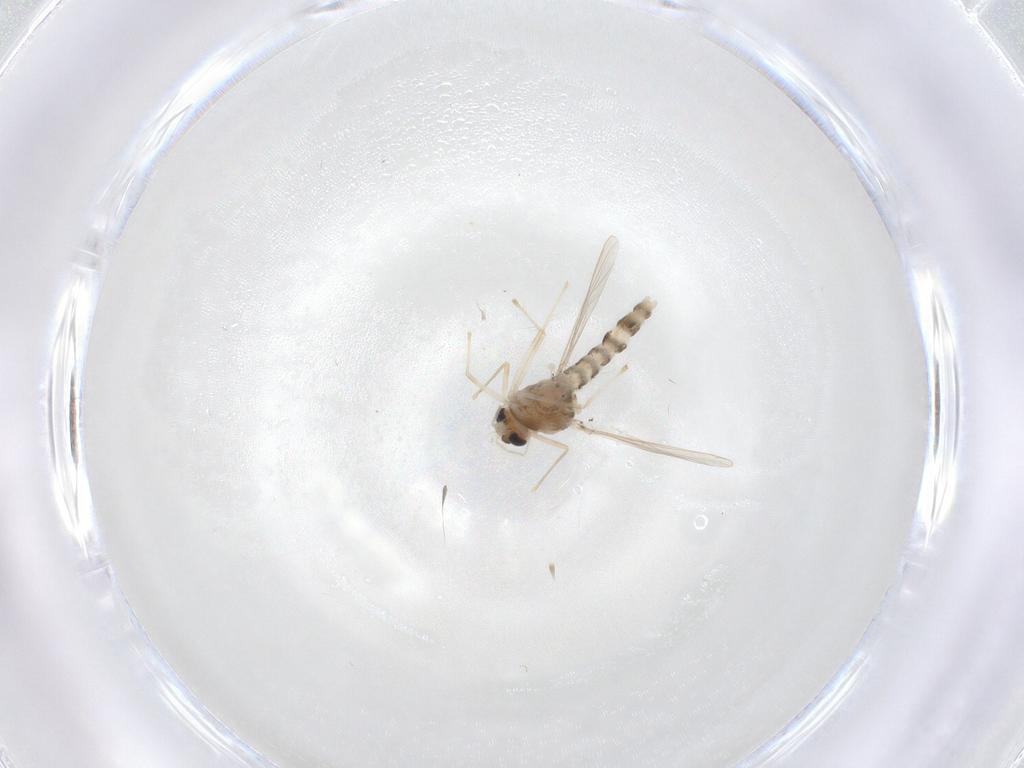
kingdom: Animalia
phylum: Arthropoda
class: Insecta
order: Diptera
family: Chironomidae
